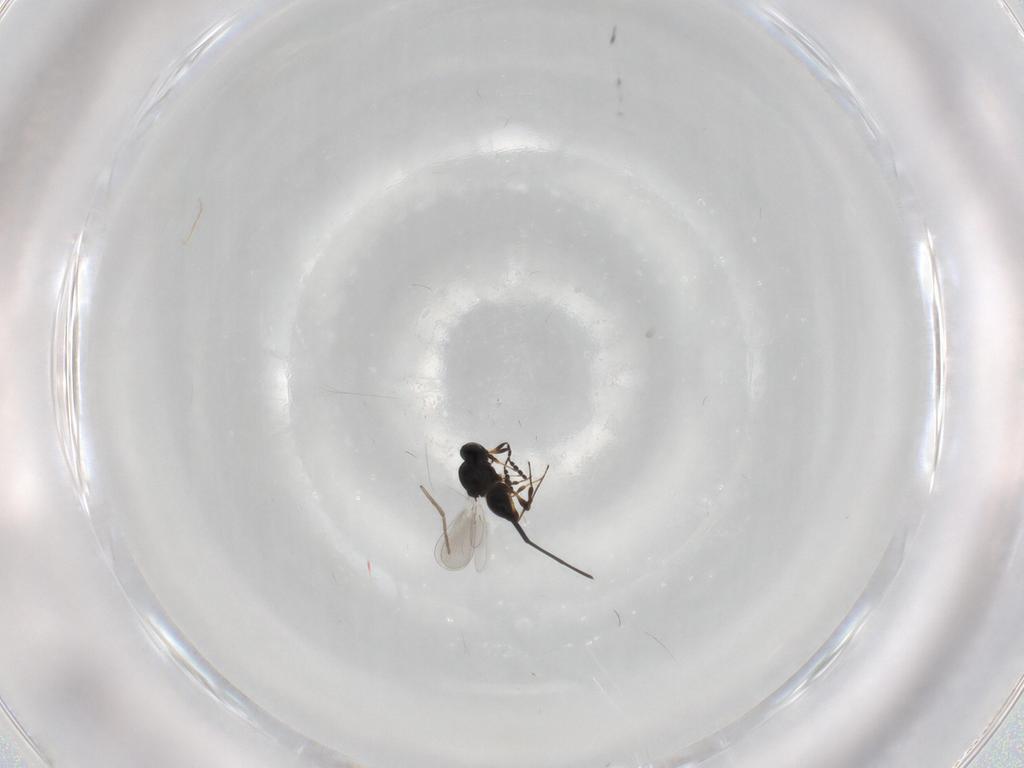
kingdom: Animalia
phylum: Arthropoda
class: Insecta
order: Hymenoptera
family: Platygastridae
